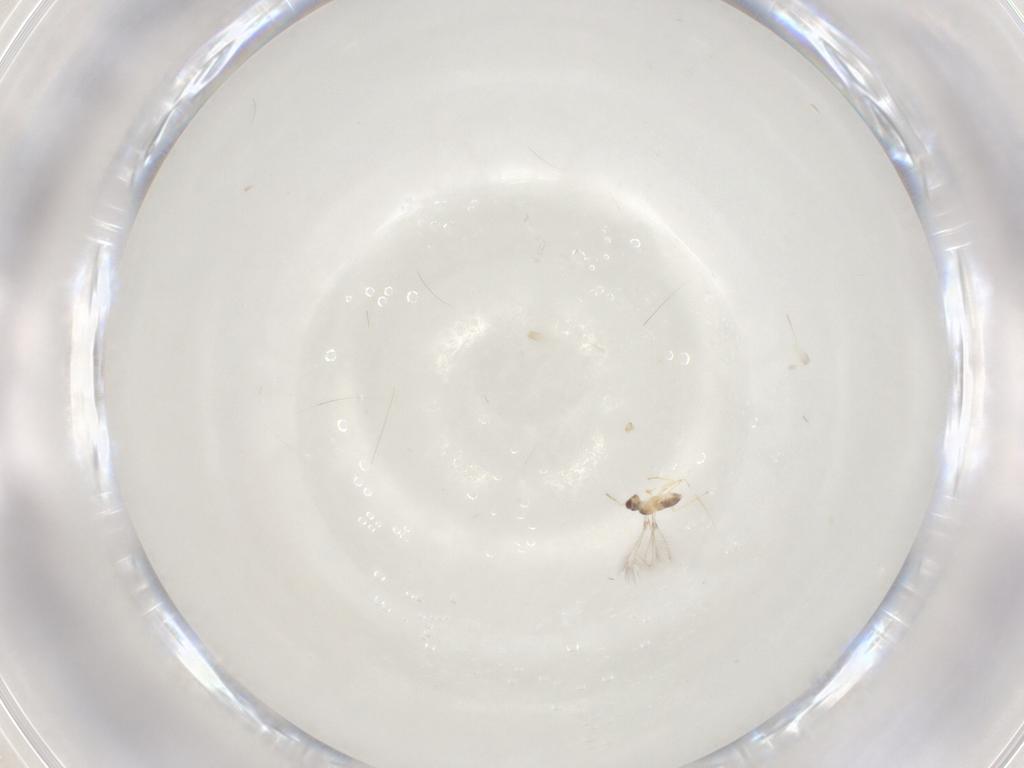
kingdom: Animalia
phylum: Arthropoda
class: Insecta
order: Hymenoptera
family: Mymaridae
